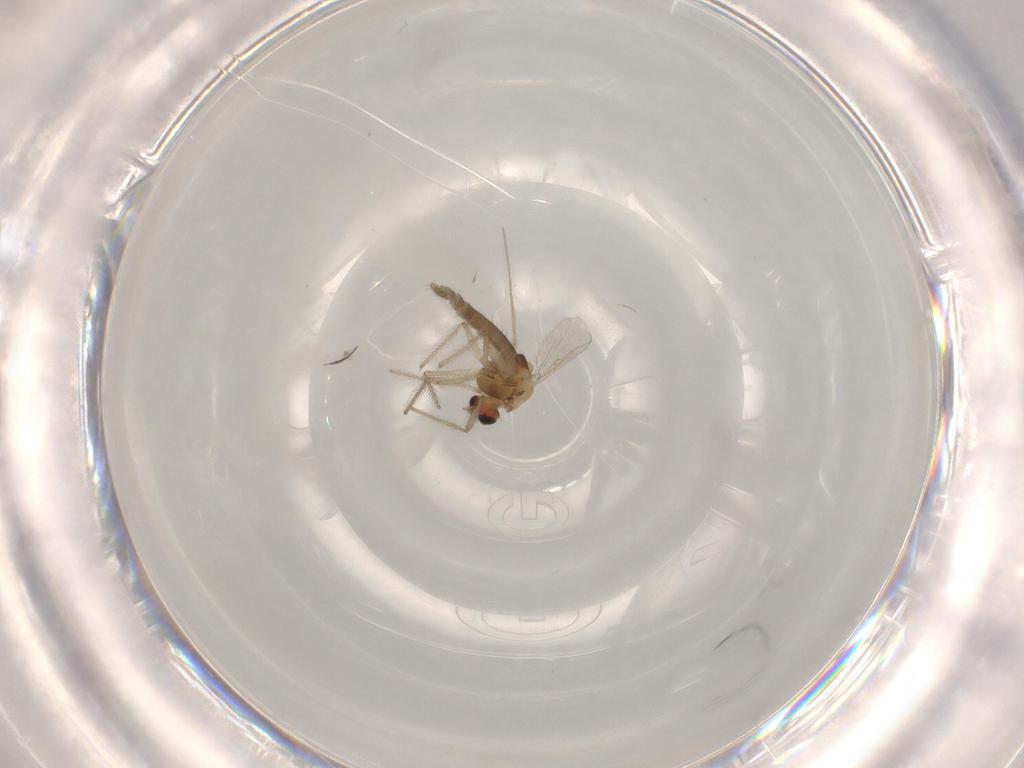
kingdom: Animalia
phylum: Arthropoda
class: Insecta
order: Diptera
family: Chironomidae
